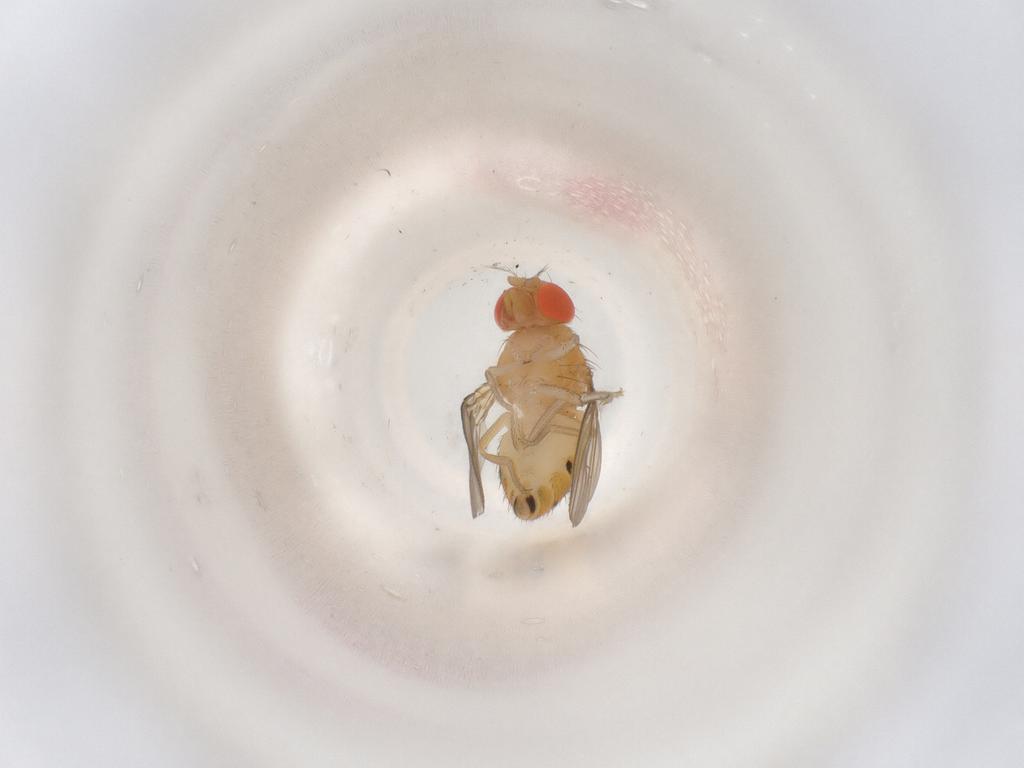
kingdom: Animalia
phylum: Arthropoda
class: Insecta
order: Diptera
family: Drosophilidae
